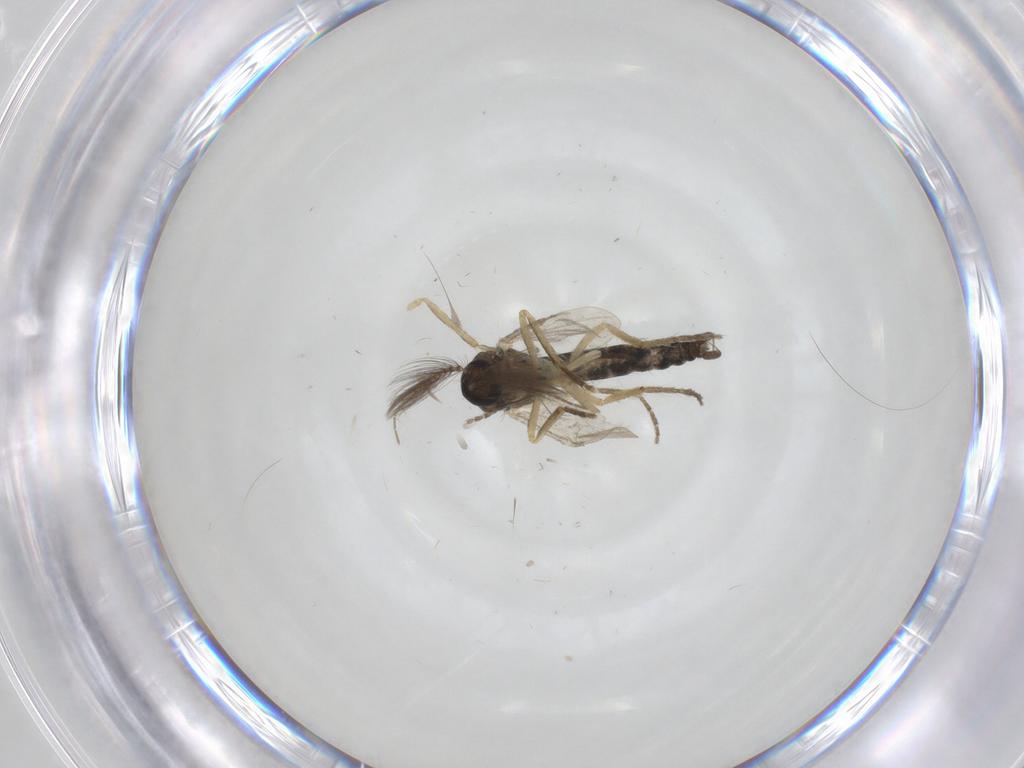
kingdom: Animalia
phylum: Arthropoda
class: Insecta
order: Diptera
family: Ceratopogonidae
